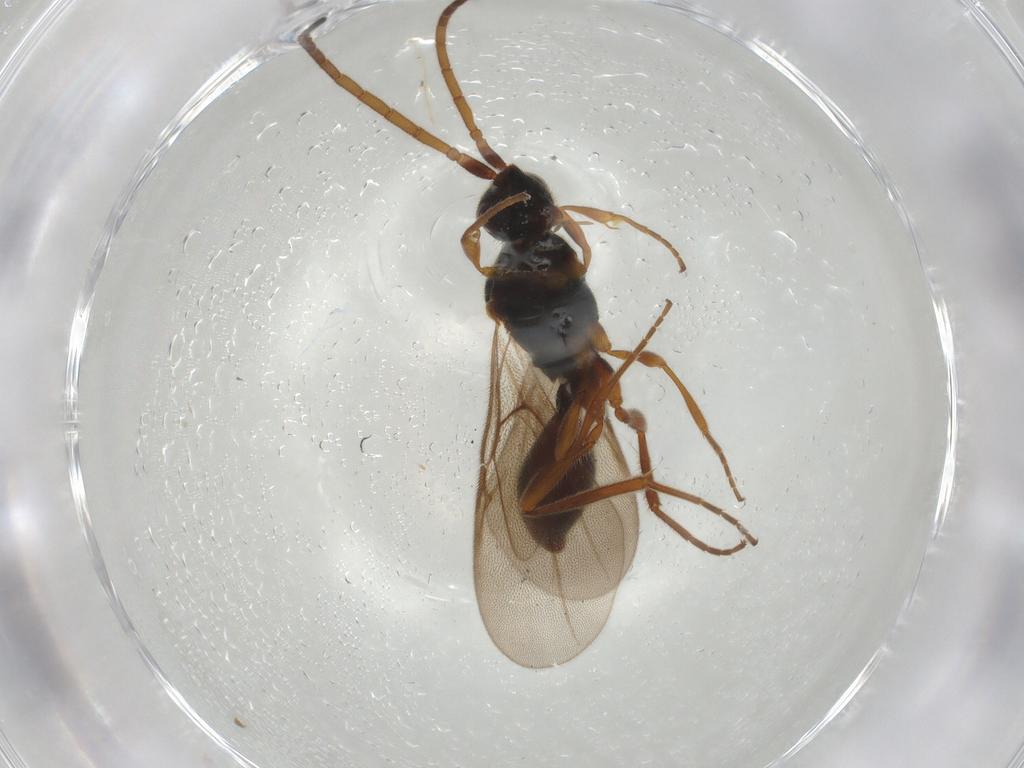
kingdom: Animalia
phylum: Arthropoda
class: Insecta
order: Hymenoptera
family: Diapriidae
